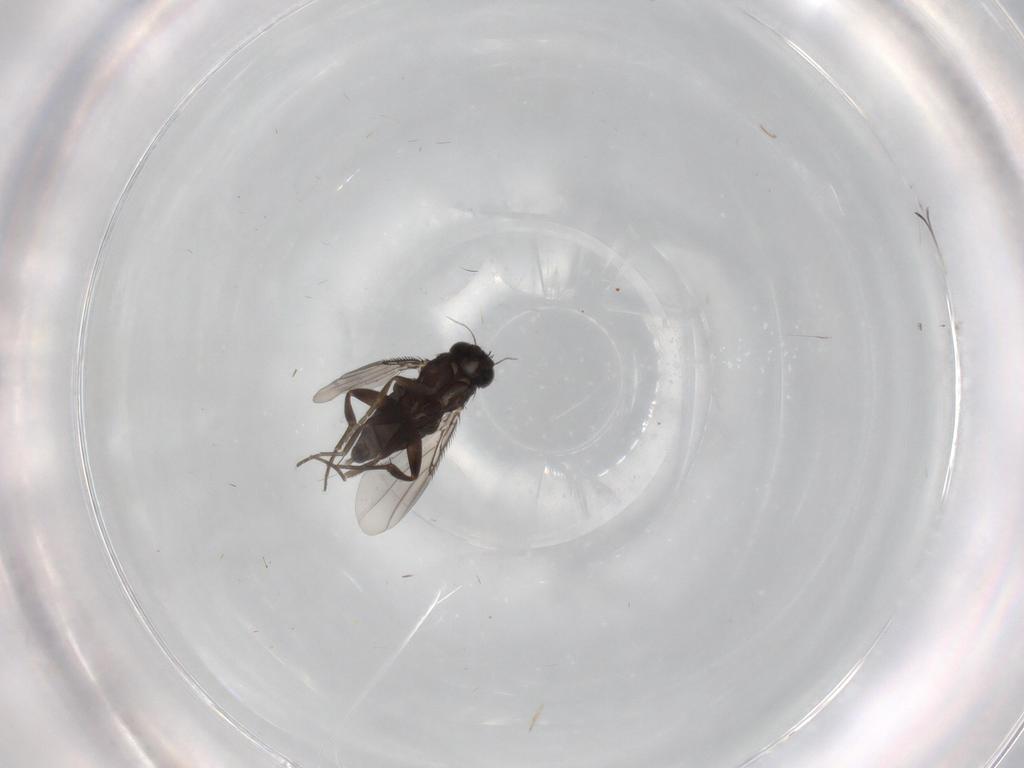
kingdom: Animalia
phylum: Arthropoda
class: Insecta
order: Diptera
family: Phoridae
